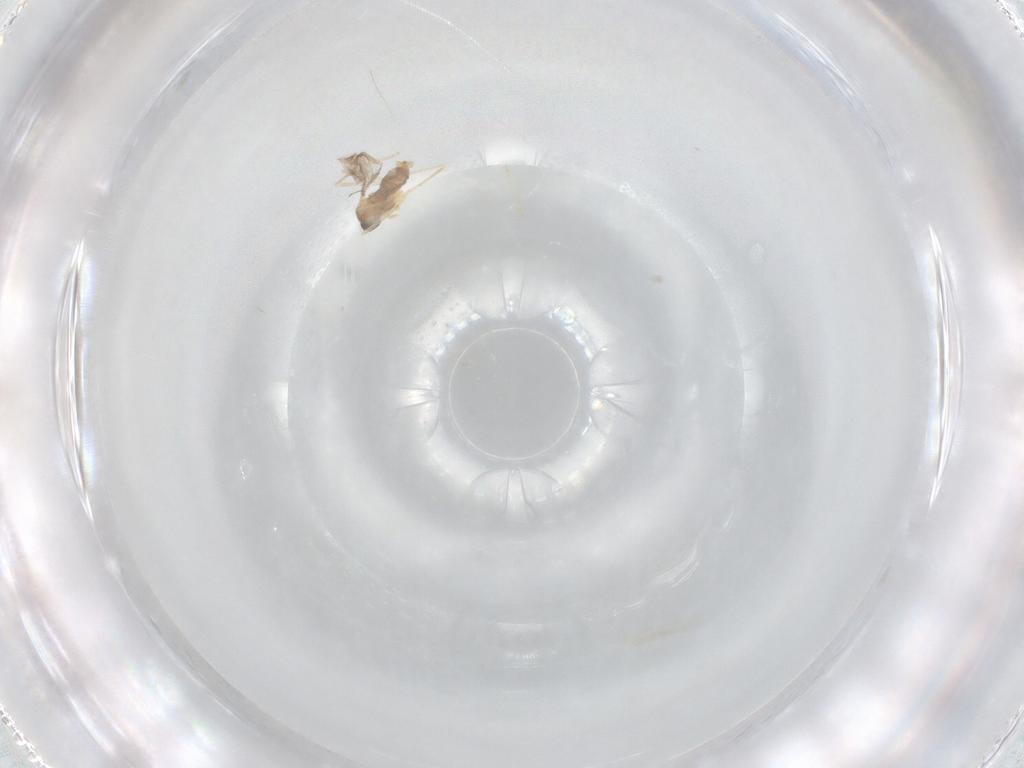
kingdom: Animalia
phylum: Arthropoda
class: Insecta
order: Diptera
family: Cecidomyiidae
